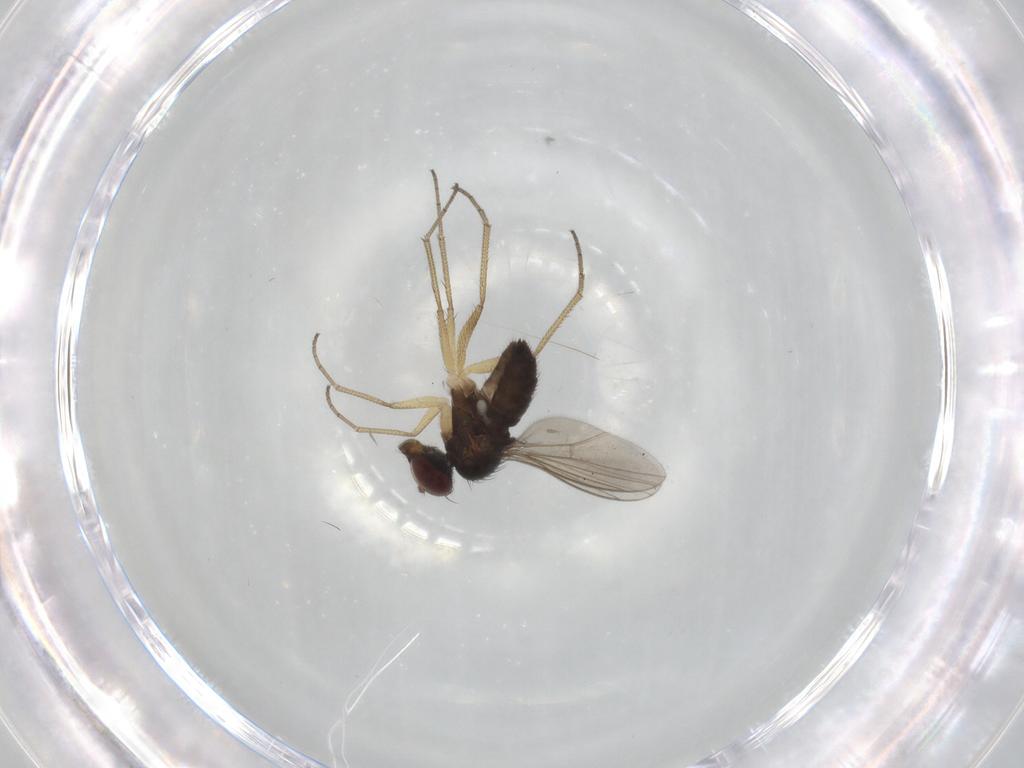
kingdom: Animalia
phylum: Arthropoda
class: Insecta
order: Diptera
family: Dolichopodidae
